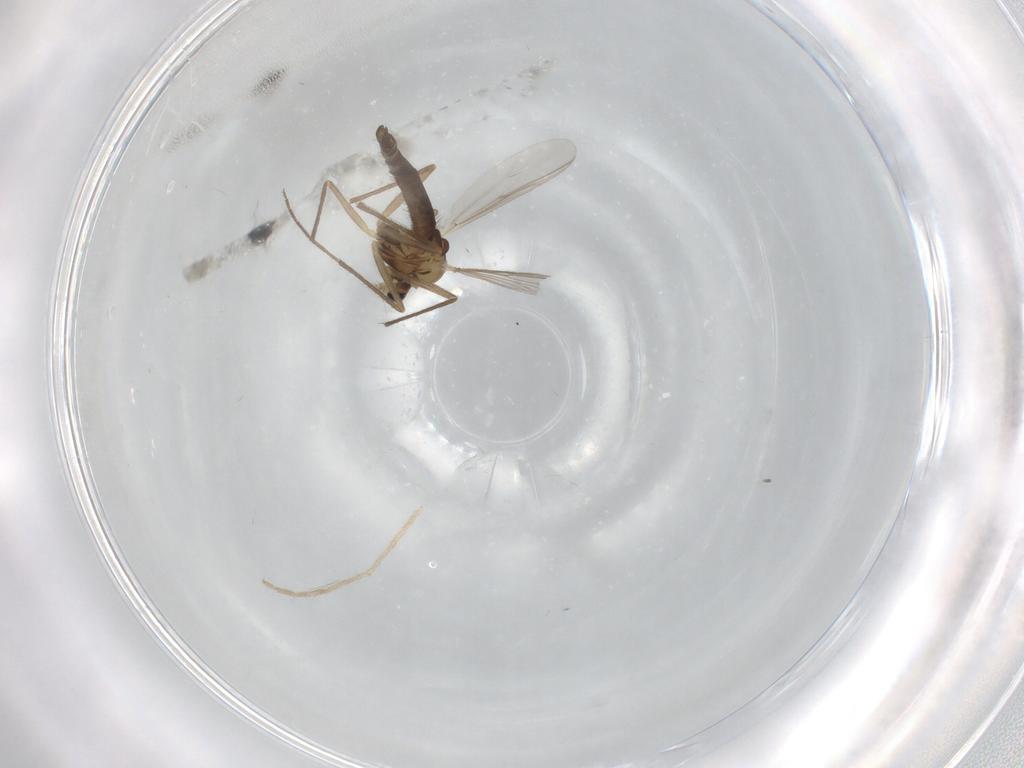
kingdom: Animalia
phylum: Arthropoda
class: Insecta
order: Diptera
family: Chironomidae
